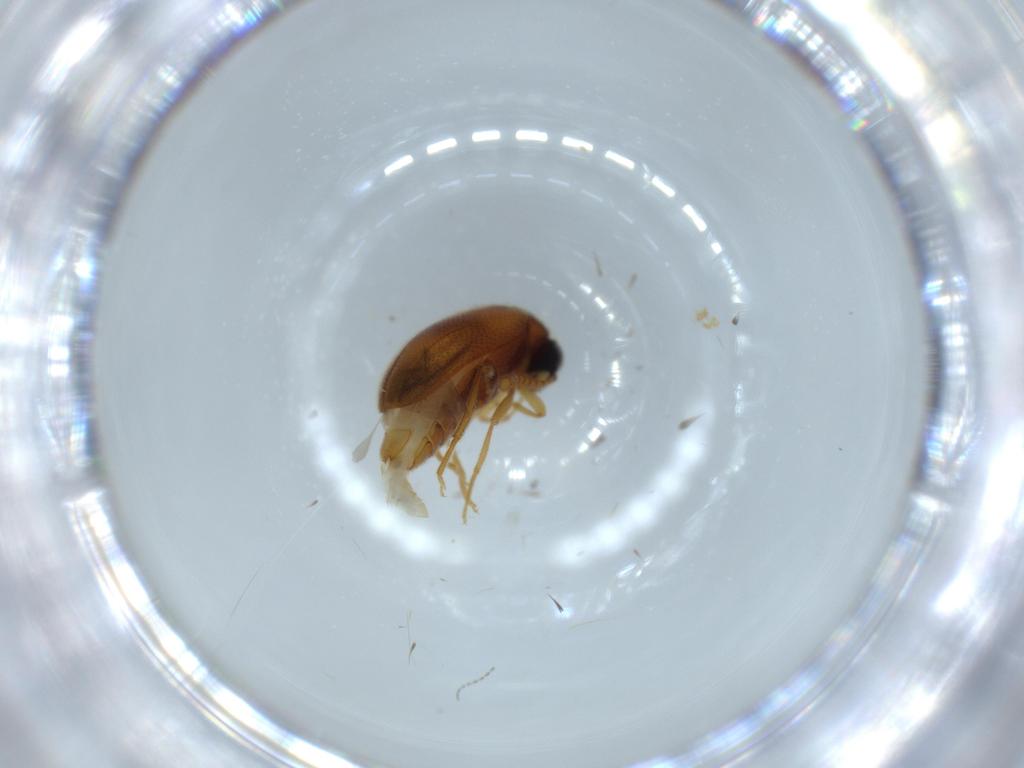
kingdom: Animalia
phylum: Arthropoda
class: Insecta
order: Coleoptera
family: Aderidae
